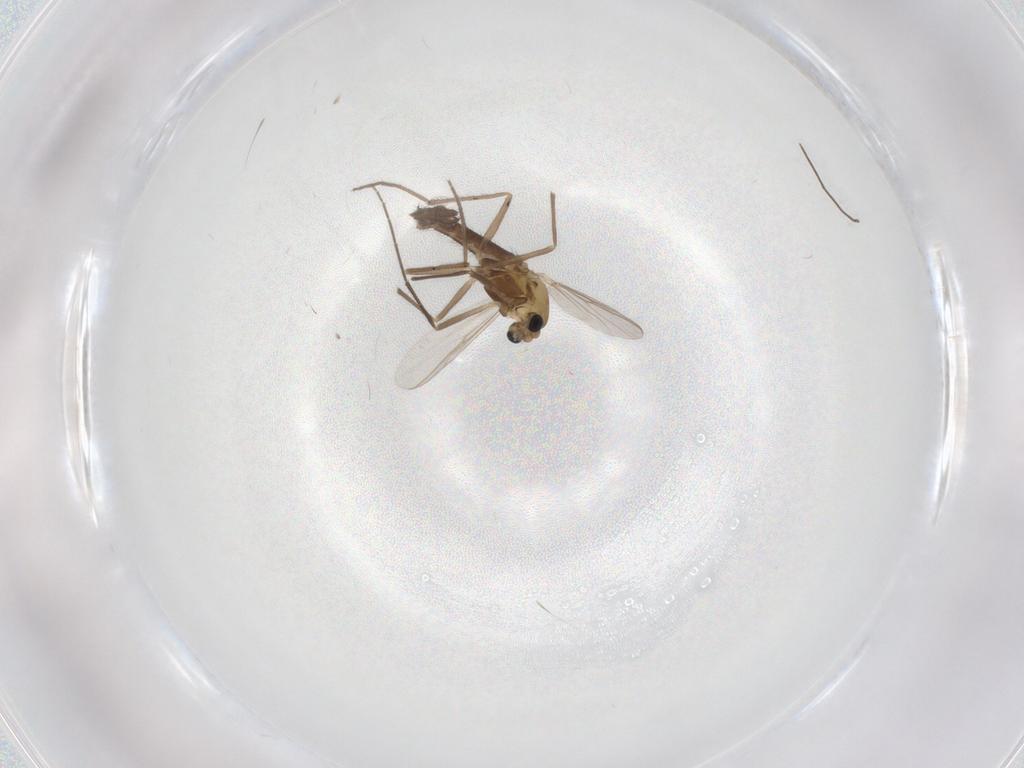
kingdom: Animalia
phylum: Arthropoda
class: Insecta
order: Diptera
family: Chironomidae
